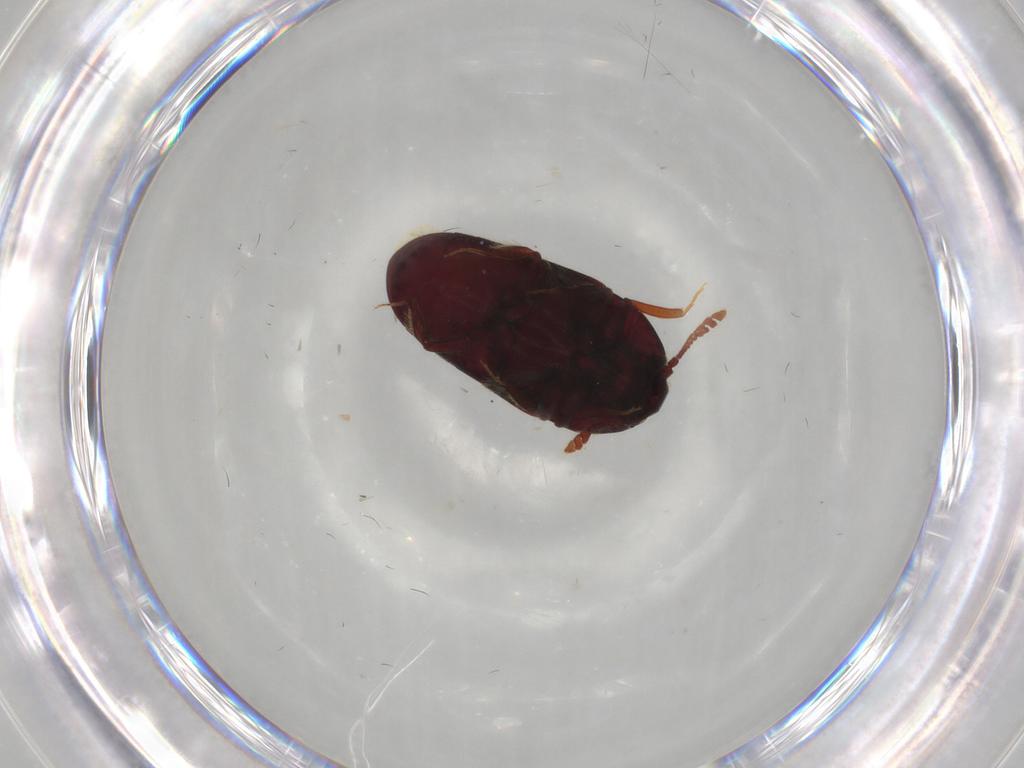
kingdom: Animalia
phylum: Arthropoda
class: Insecta
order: Coleoptera
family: Throscidae
